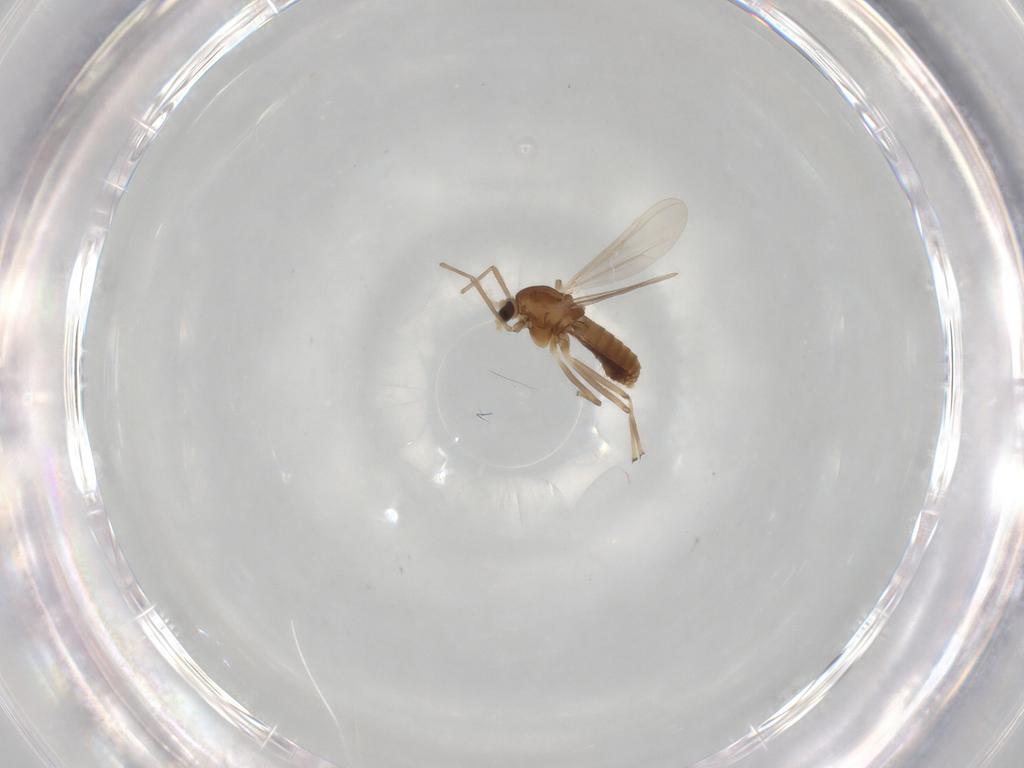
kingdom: Animalia
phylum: Arthropoda
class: Insecta
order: Diptera
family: Chironomidae
